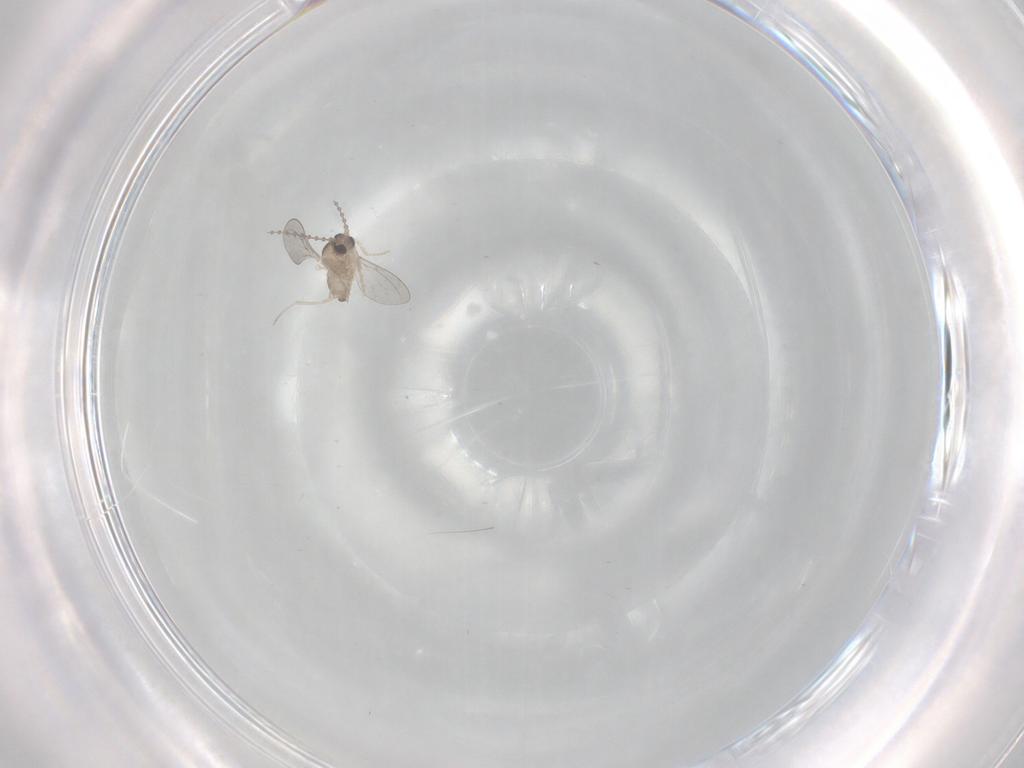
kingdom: Animalia
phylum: Arthropoda
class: Insecta
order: Diptera
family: Cecidomyiidae
